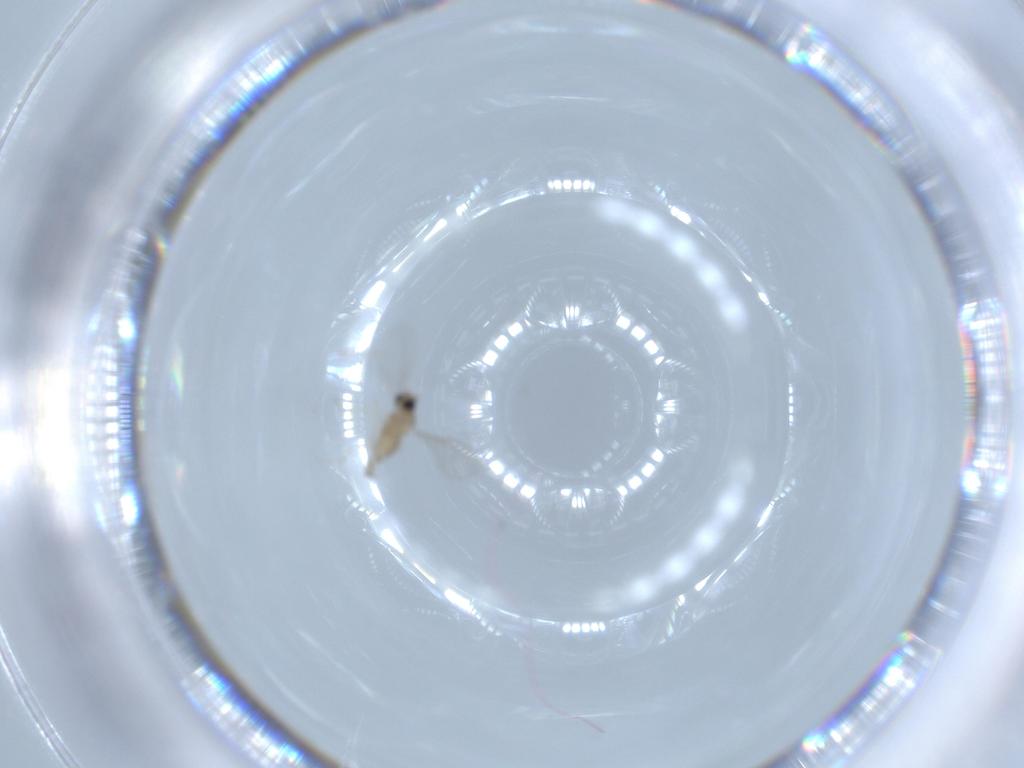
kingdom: Animalia
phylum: Arthropoda
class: Insecta
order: Diptera
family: Cecidomyiidae
